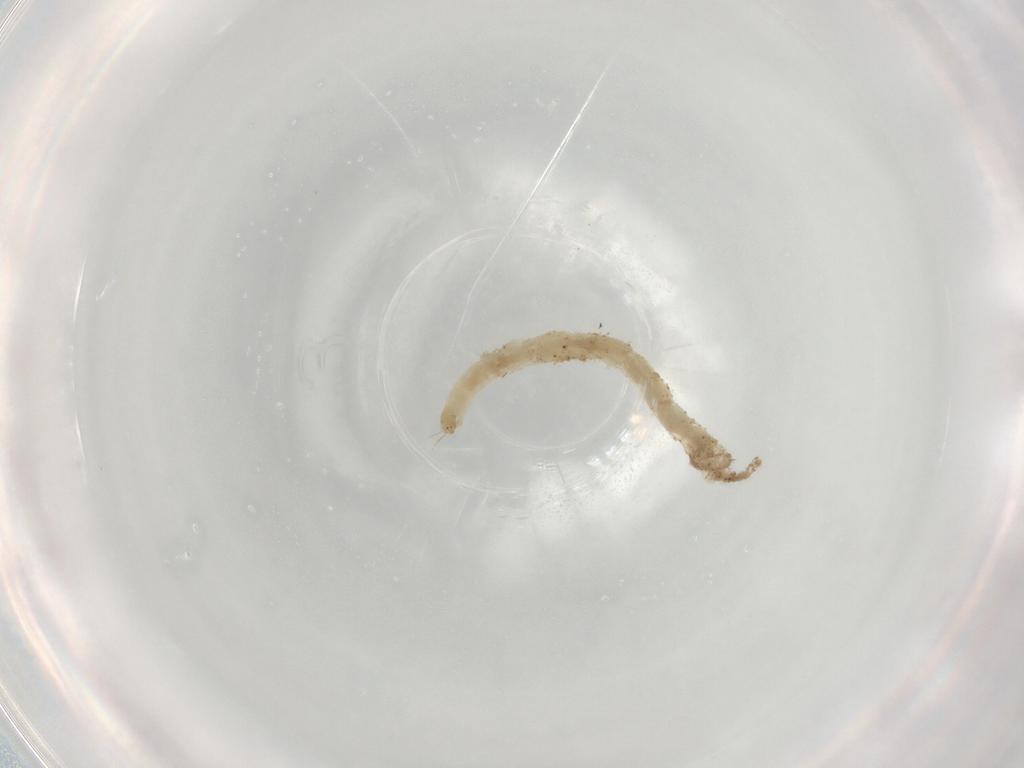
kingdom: Animalia
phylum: Arthropoda
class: Insecta
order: Diptera
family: Chironomidae
